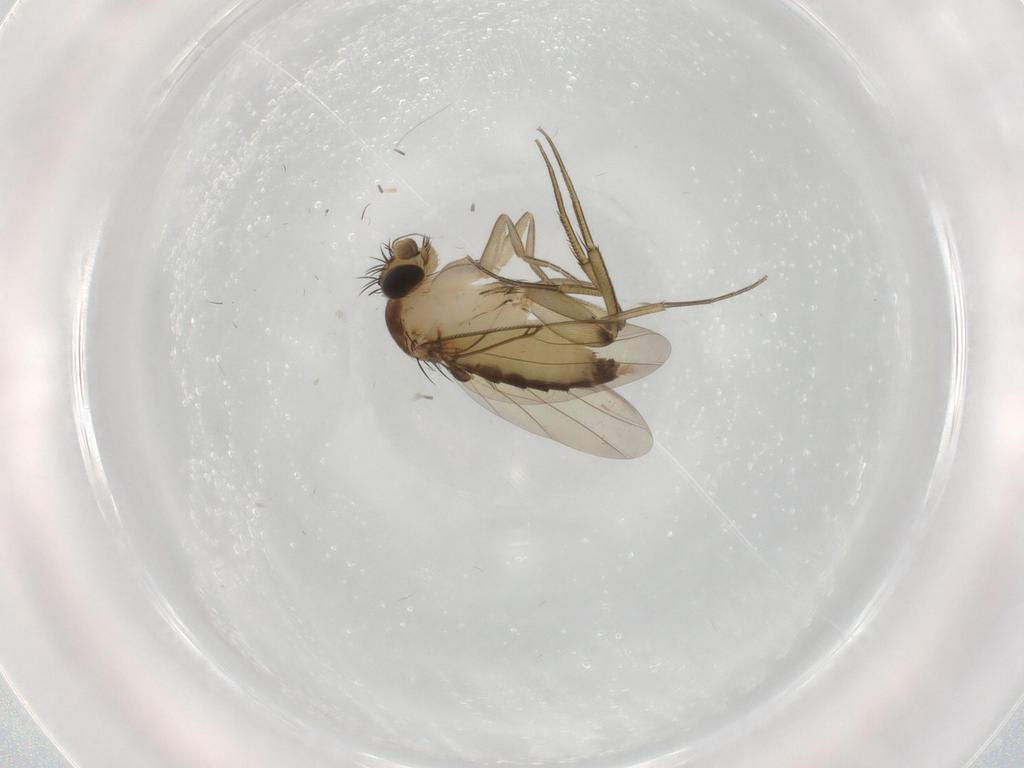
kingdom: Animalia
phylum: Arthropoda
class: Insecta
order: Diptera
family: Phoridae
